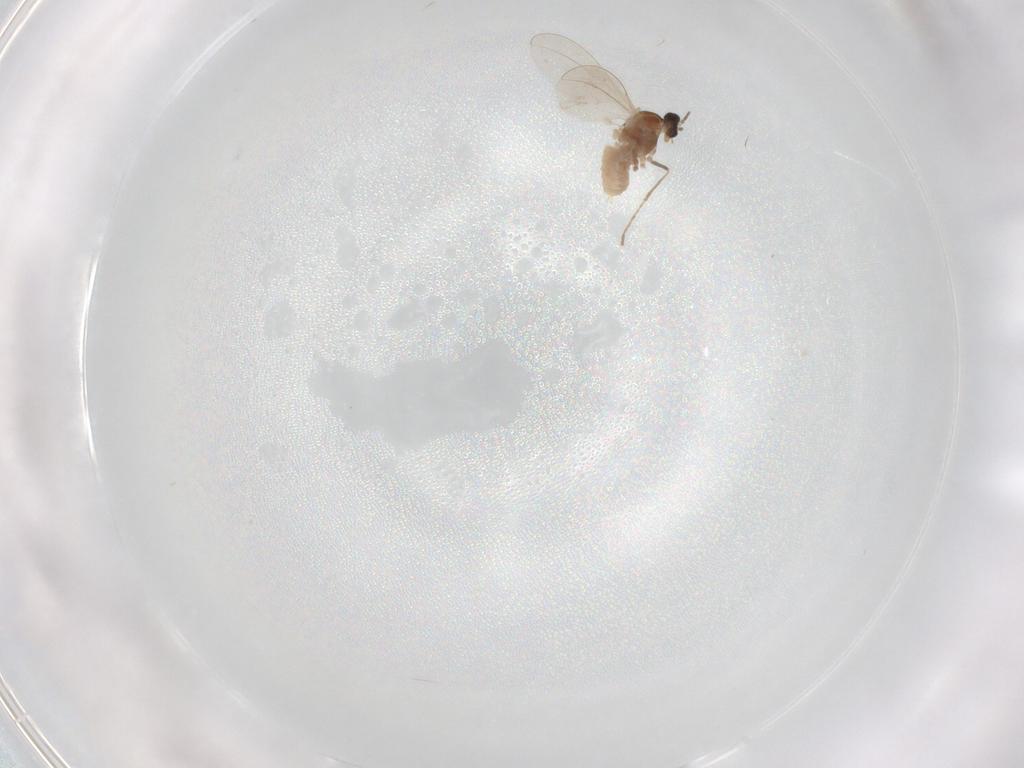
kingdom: Animalia
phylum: Arthropoda
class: Insecta
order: Diptera
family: Cecidomyiidae
